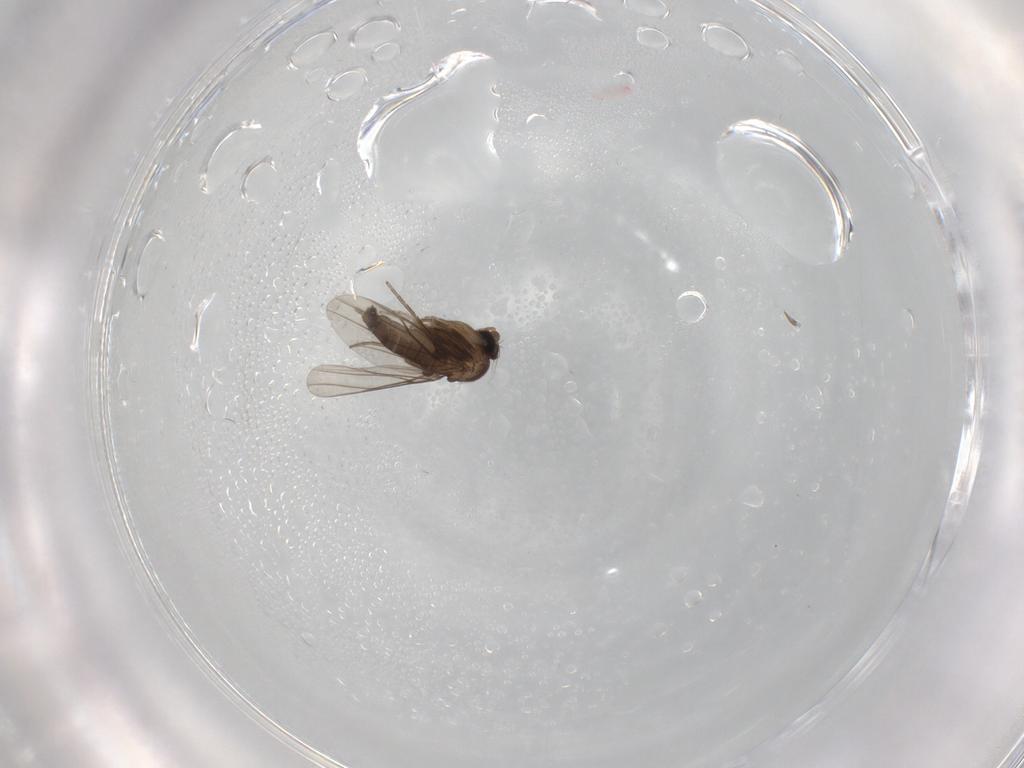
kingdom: Animalia
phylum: Arthropoda
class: Insecta
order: Diptera
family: Chironomidae
